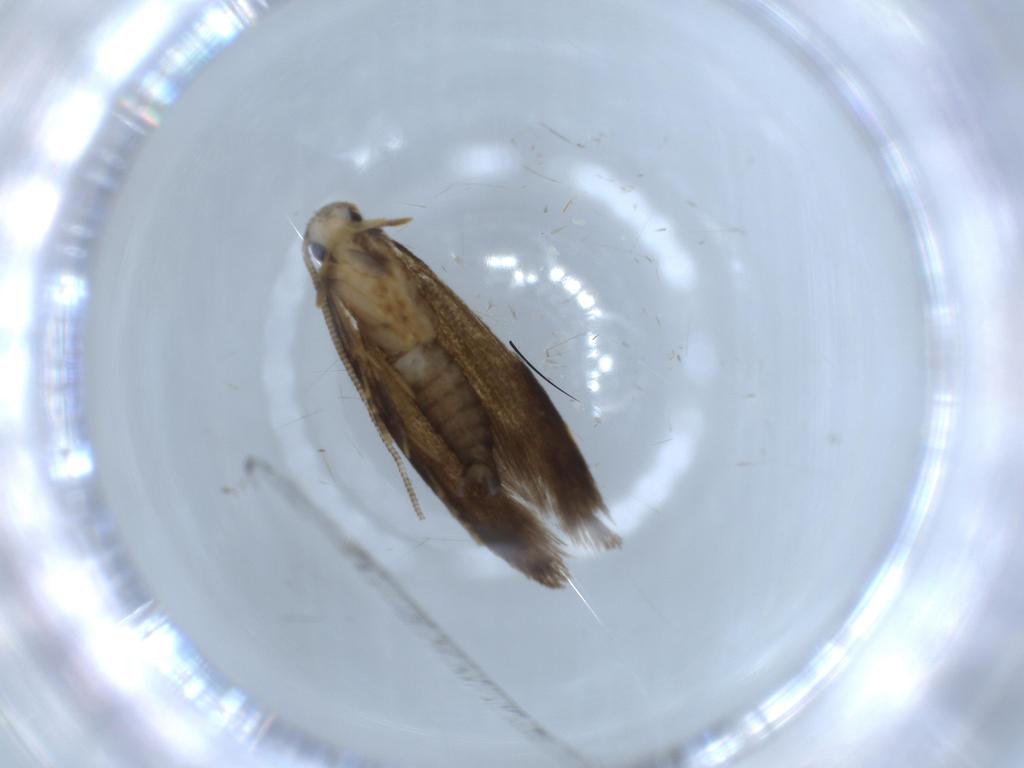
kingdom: Animalia
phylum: Arthropoda
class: Insecta
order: Lepidoptera
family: Tineidae
